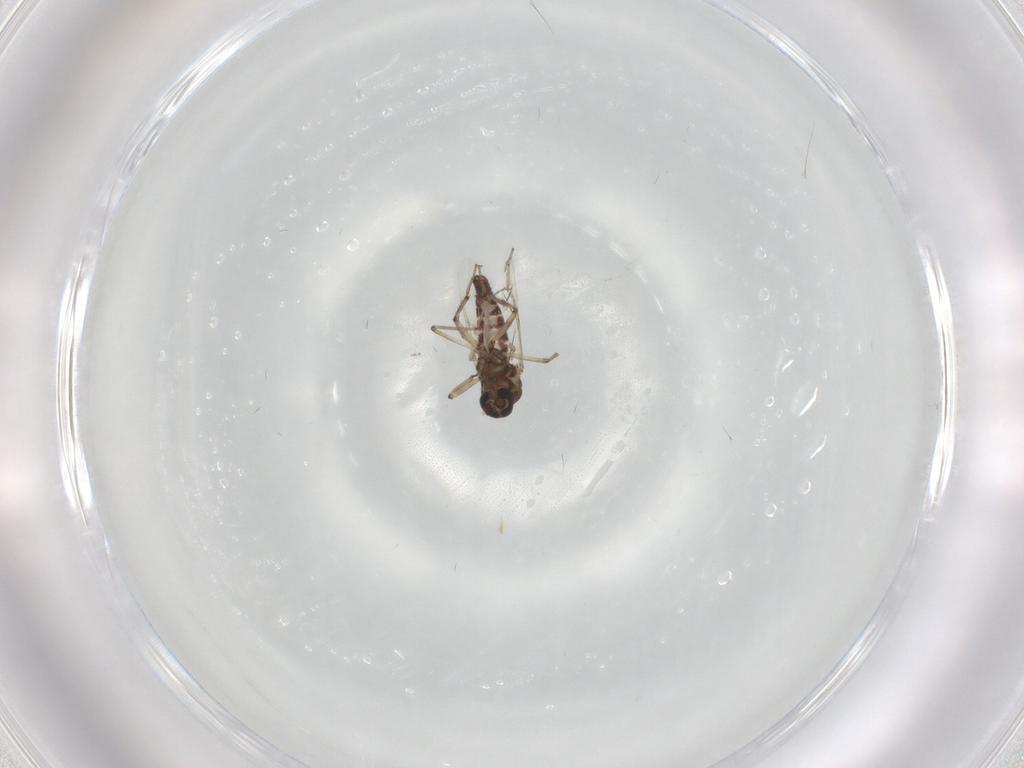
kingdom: Animalia
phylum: Arthropoda
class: Insecta
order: Diptera
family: Ceratopogonidae
